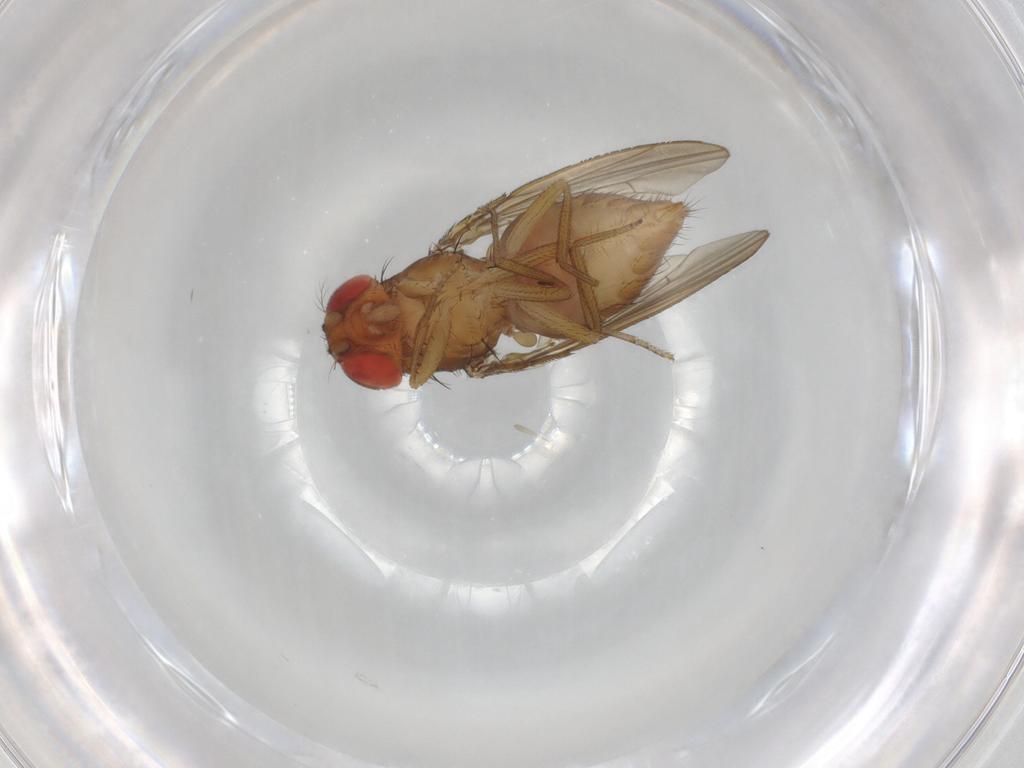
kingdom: Animalia
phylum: Arthropoda
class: Insecta
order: Diptera
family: Drosophilidae
